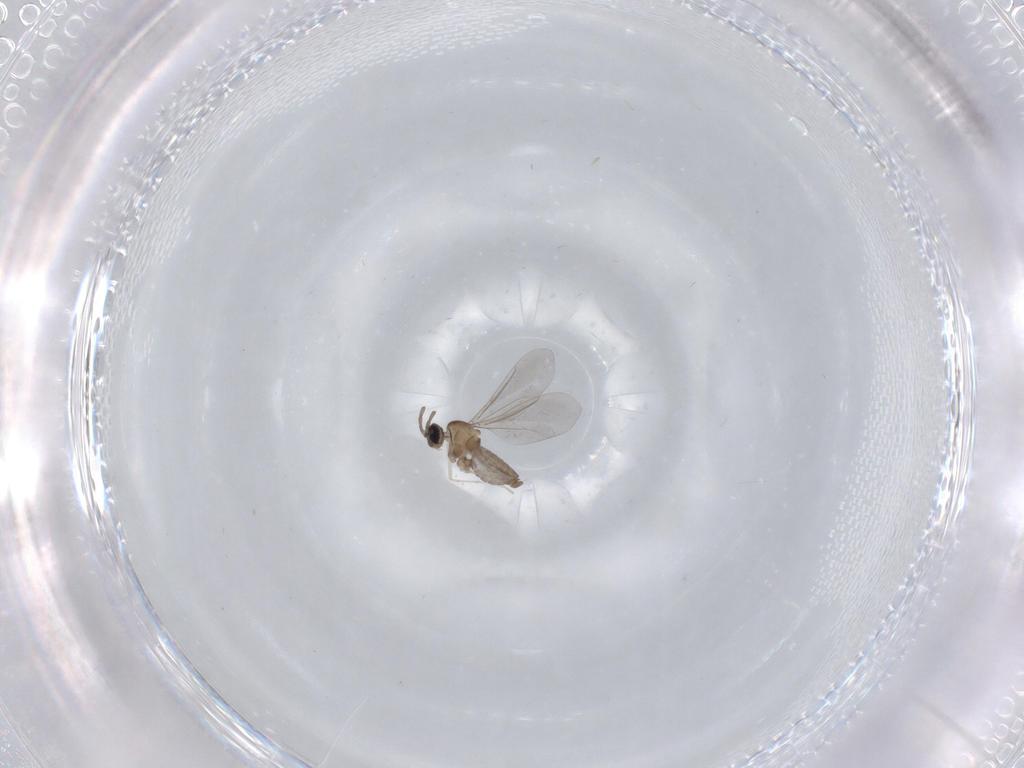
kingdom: Animalia
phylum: Arthropoda
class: Insecta
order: Diptera
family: Cecidomyiidae
